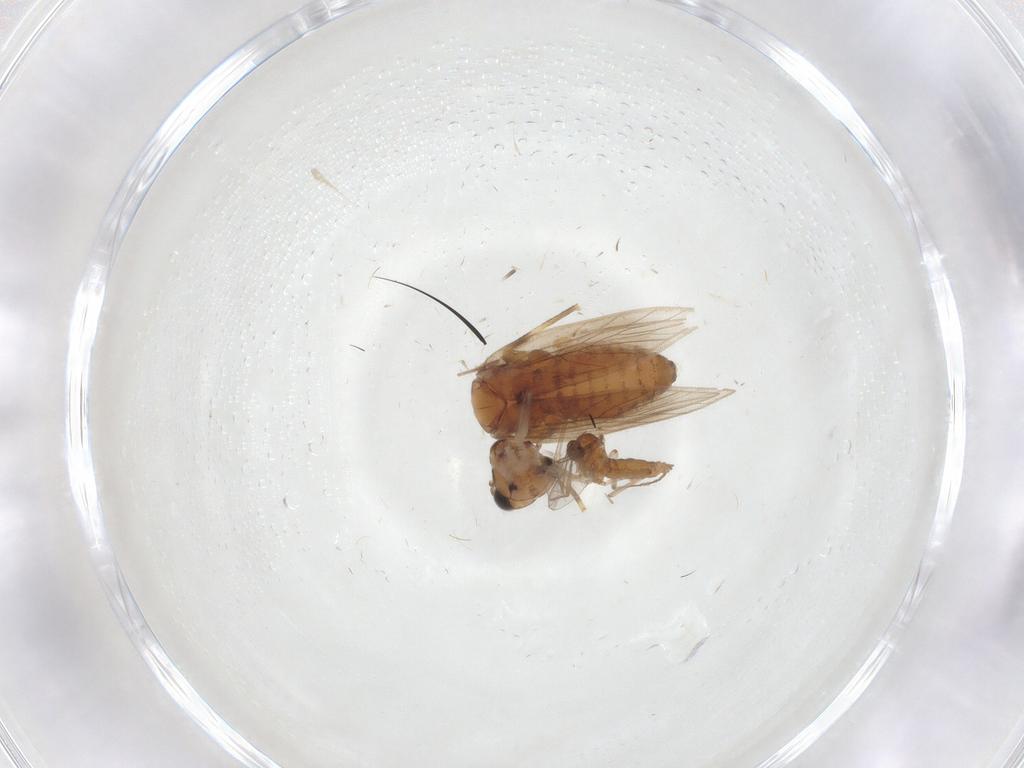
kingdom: Animalia
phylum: Arthropoda
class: Insecta
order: Psocodea
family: Lepidopsocidae
